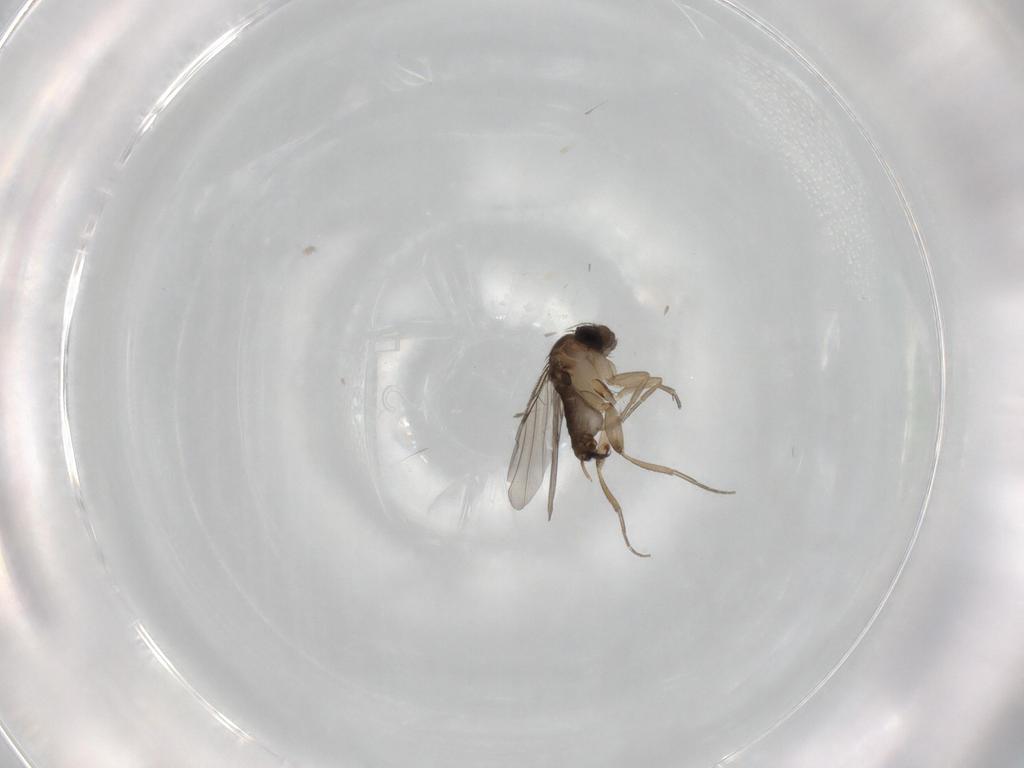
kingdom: Animalia
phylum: Arthropoda
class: Insecta
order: Diptera
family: Phoridae
